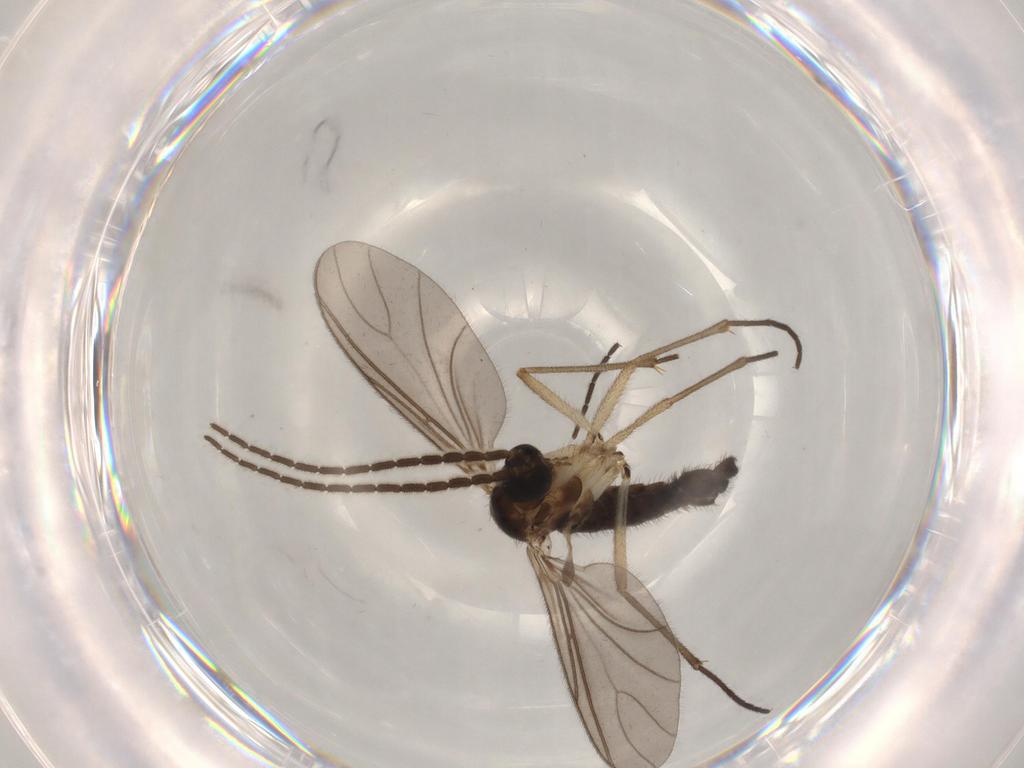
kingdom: Animalia
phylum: Arthropoda
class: Insecta
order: Diptera
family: Sciaridae
